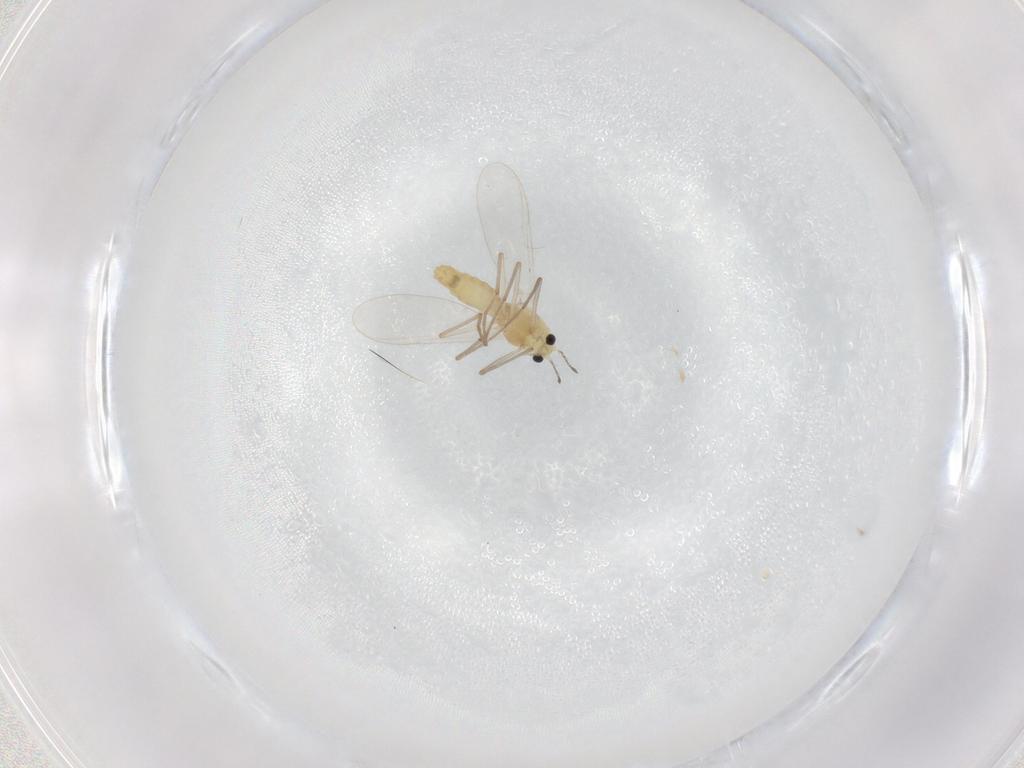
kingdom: Animalia
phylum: Arthropoda
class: Insecta
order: Diptera
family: Chironomidae
